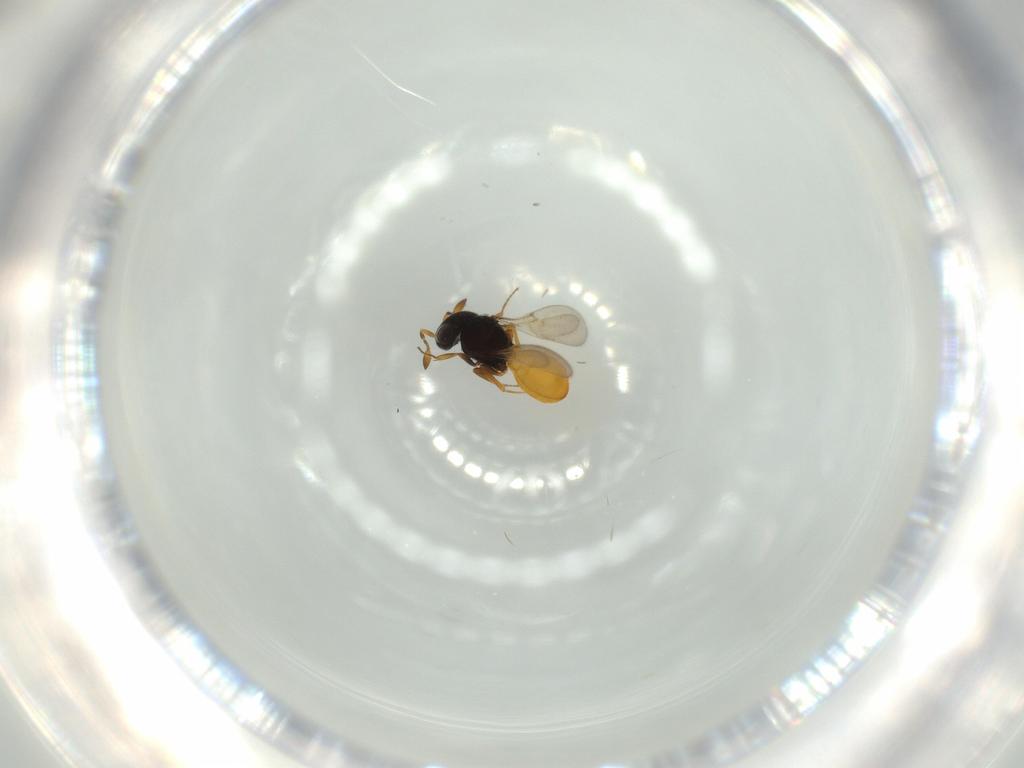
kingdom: Animalia
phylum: Arthropoda
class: Insecta
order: Hymenoptera
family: Scelionidae
